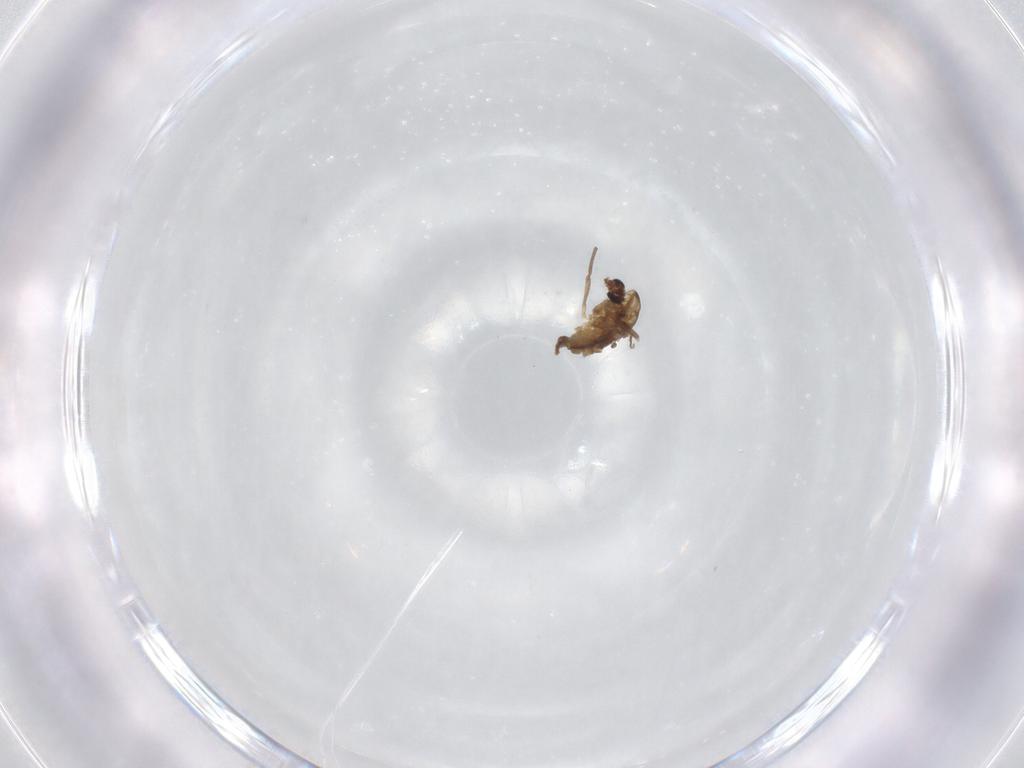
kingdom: Animalia
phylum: Arthropoda
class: Insecta
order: Diptera
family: Chironomidae
